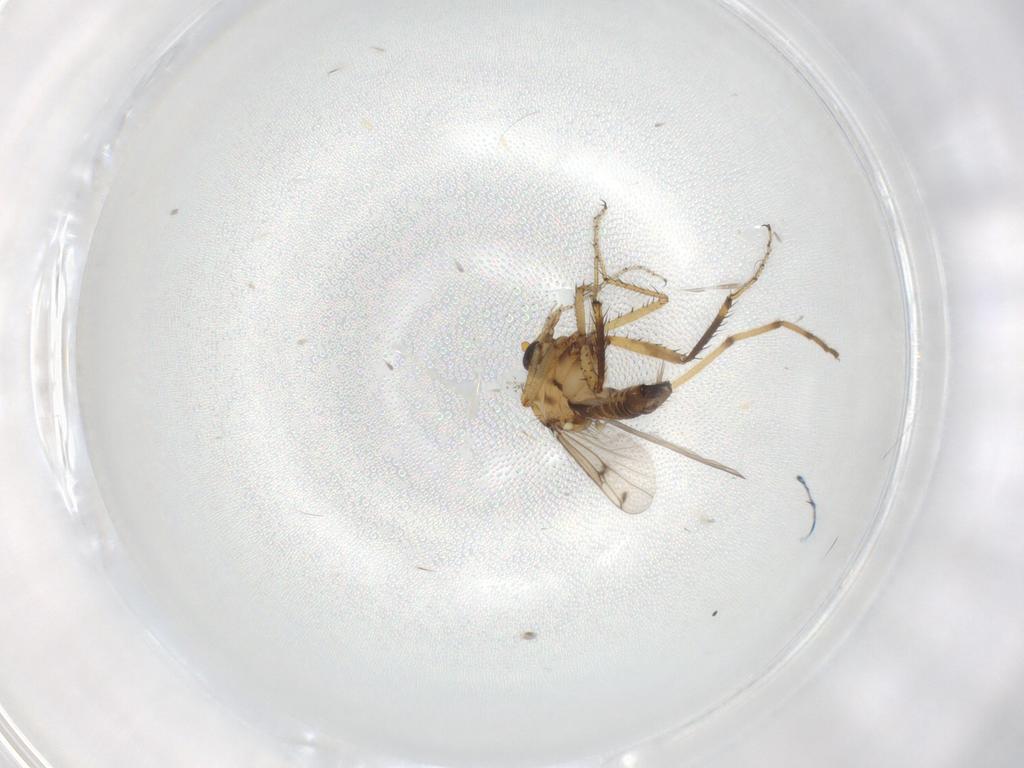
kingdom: Animalia
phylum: Arthropoda
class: Insecta
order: Diptera
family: Ceratopogonidae
